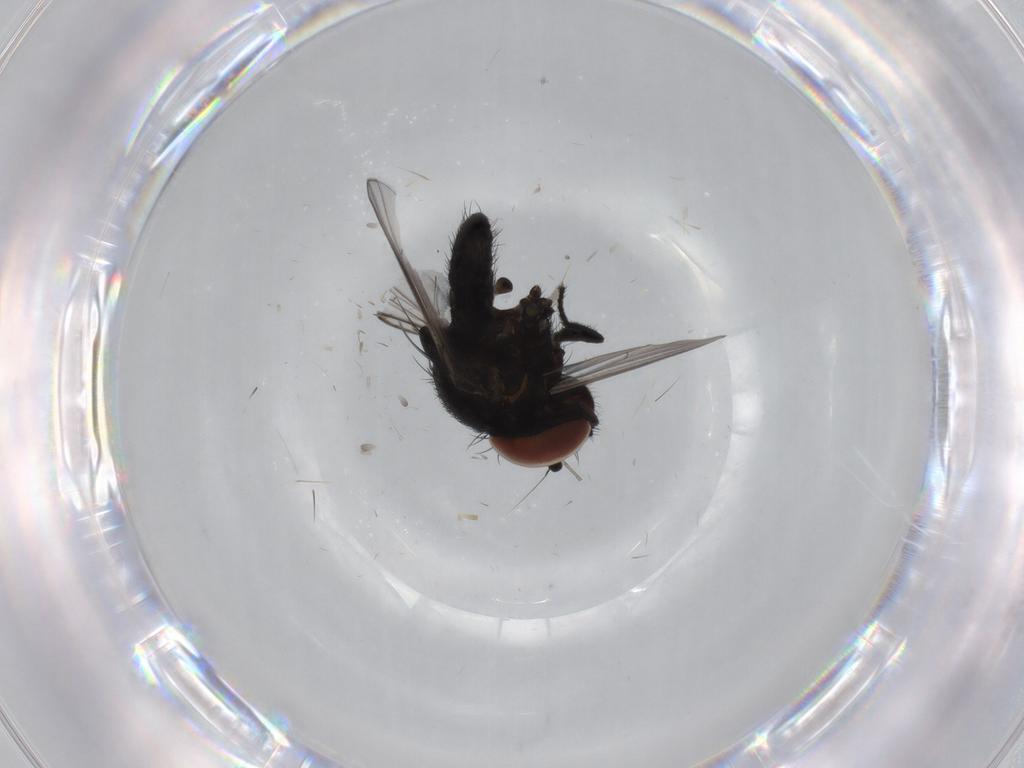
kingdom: Animalia
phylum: Arthropoda
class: Insecta
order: Diptera
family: Milichiidae
